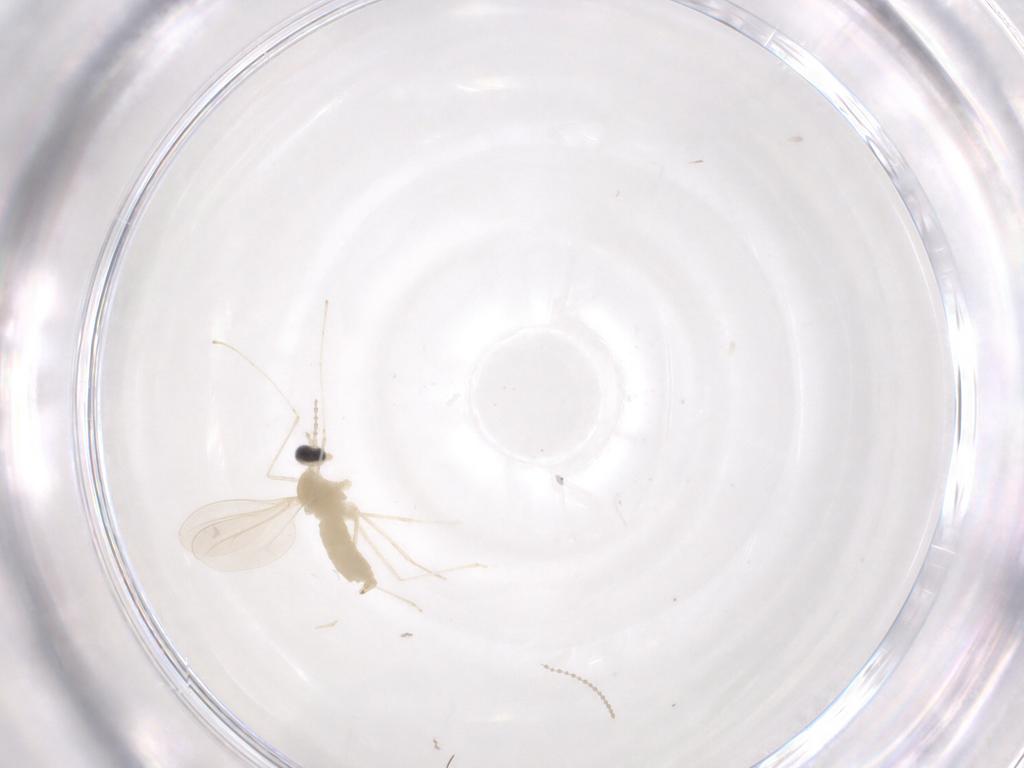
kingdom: Animalia
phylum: Arthropoda
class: Insecta
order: Diptera
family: Cecidomyiidae
